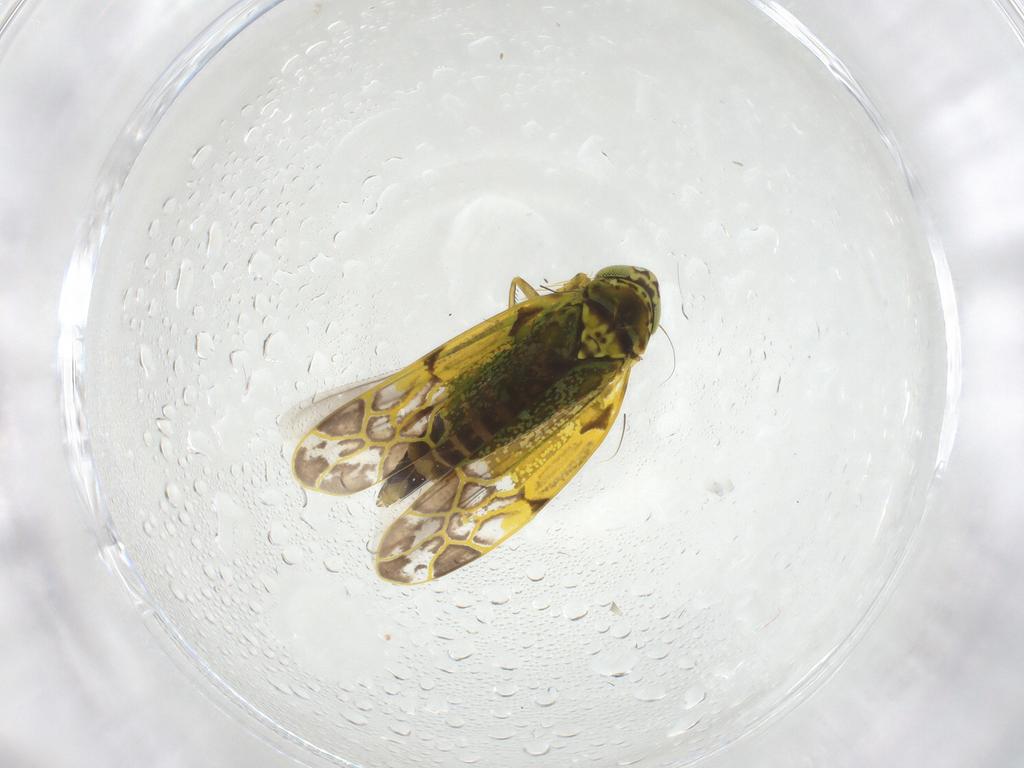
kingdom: Animalia
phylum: Arthropoda
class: Insecta
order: Hemiptera
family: Cicadellidae
